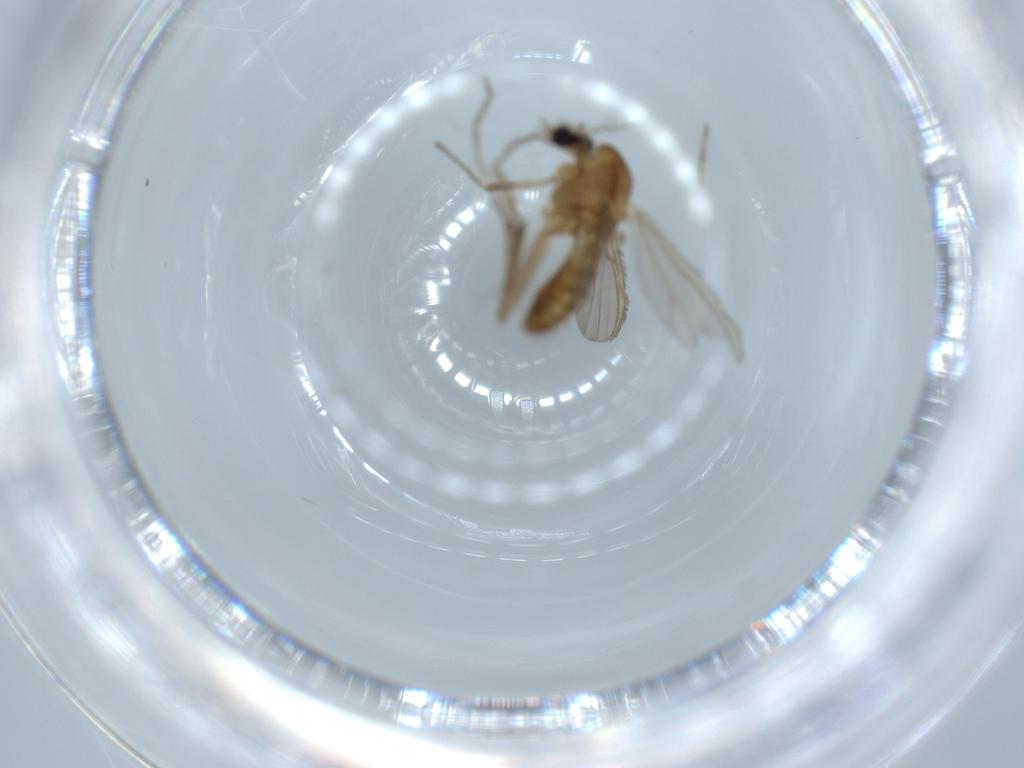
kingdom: Animalia
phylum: Arthropoda
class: Insecta
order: Diptera
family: Chironomidae
